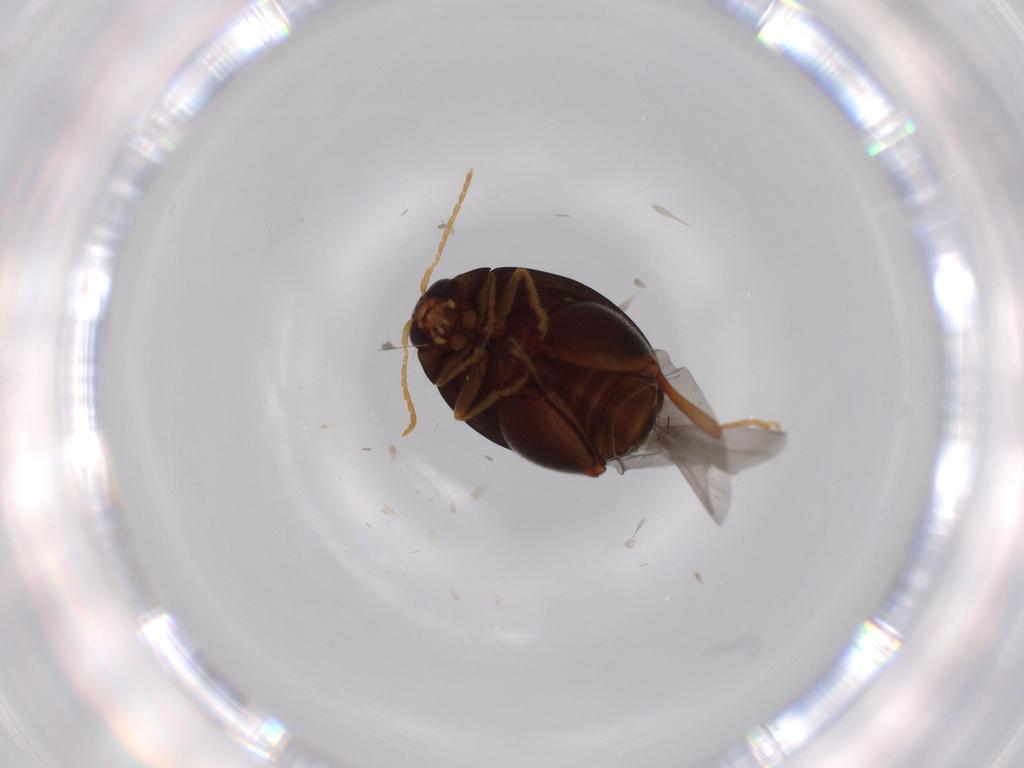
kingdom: Animalia
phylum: Arthropoda
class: Insecta
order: Coleoptera
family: Chrysomelidae
